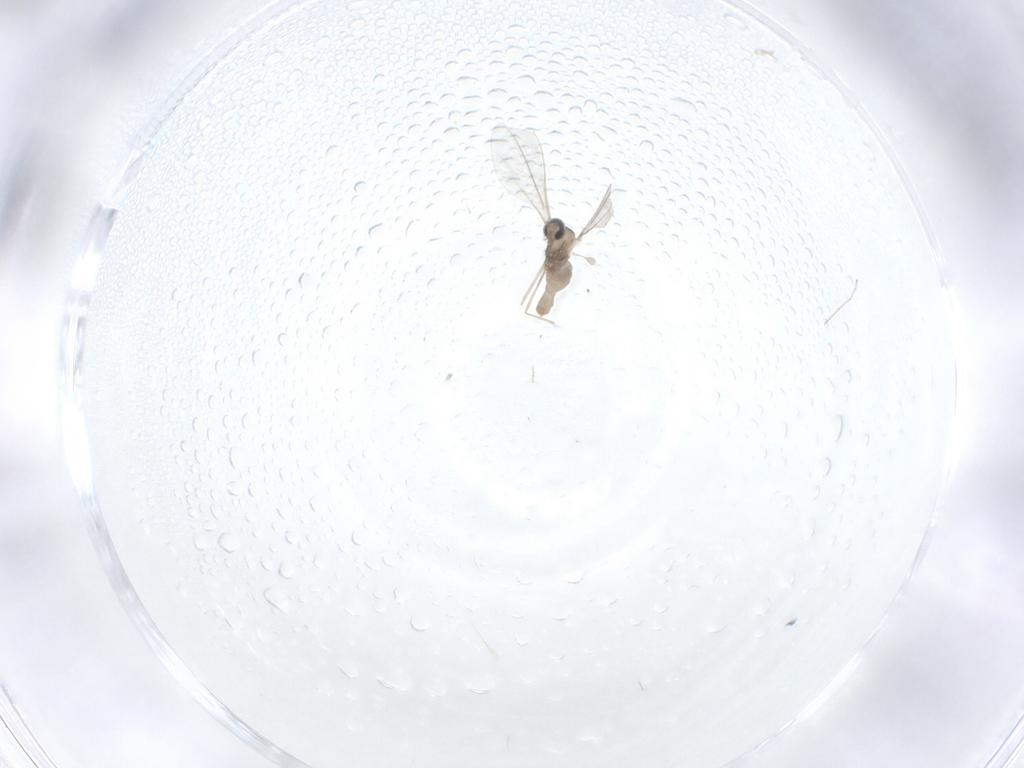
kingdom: Animalia
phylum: Arthropoda
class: Insecta
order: Diptera
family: Cecidomyiidae
